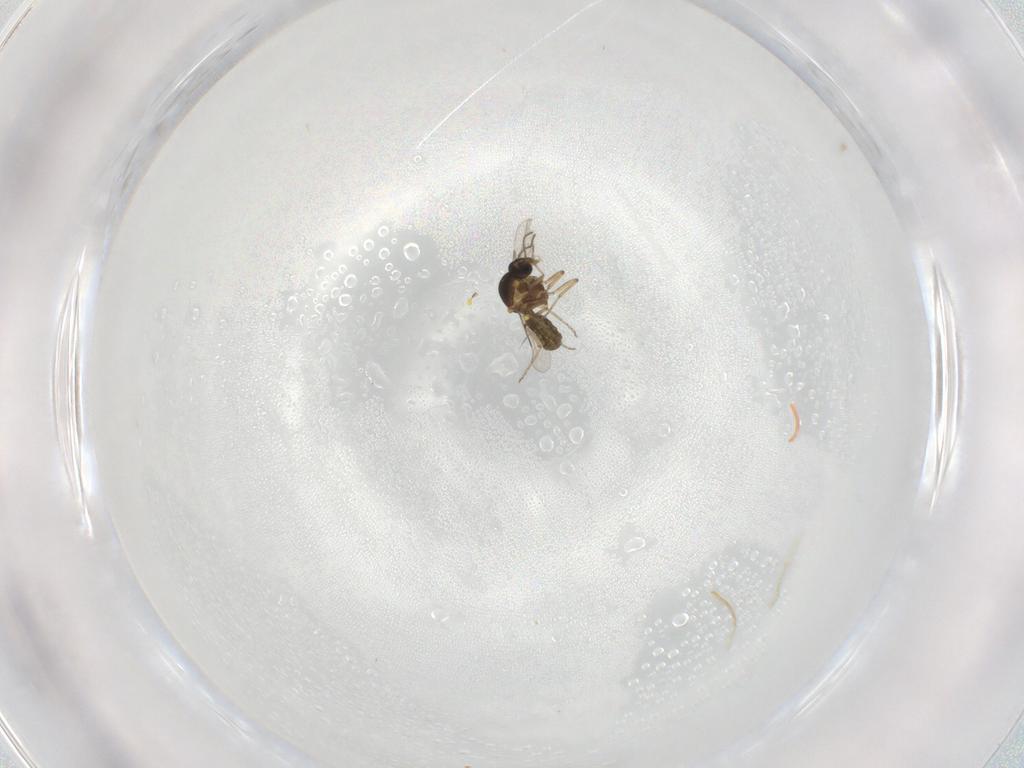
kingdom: Animalia
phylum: Arthropoda
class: Insecta
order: Diptera
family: Ceratopogonidae
